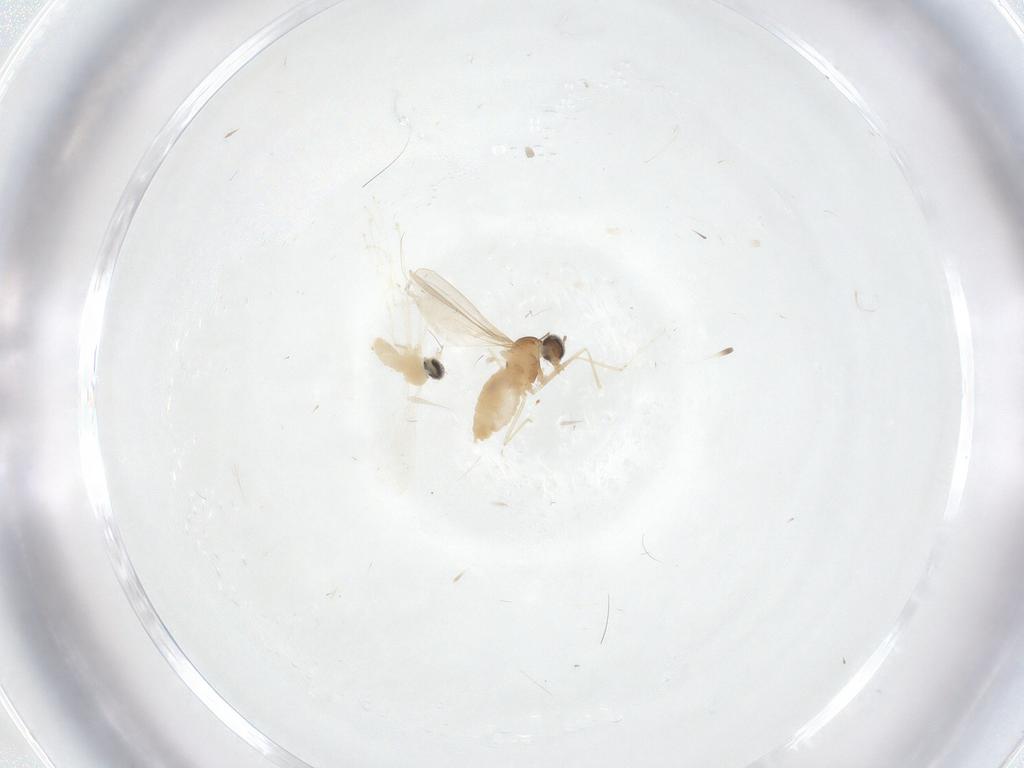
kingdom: Animalia
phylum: Arthropoda
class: Insecta
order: Diptera
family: Cecidomyiidae
